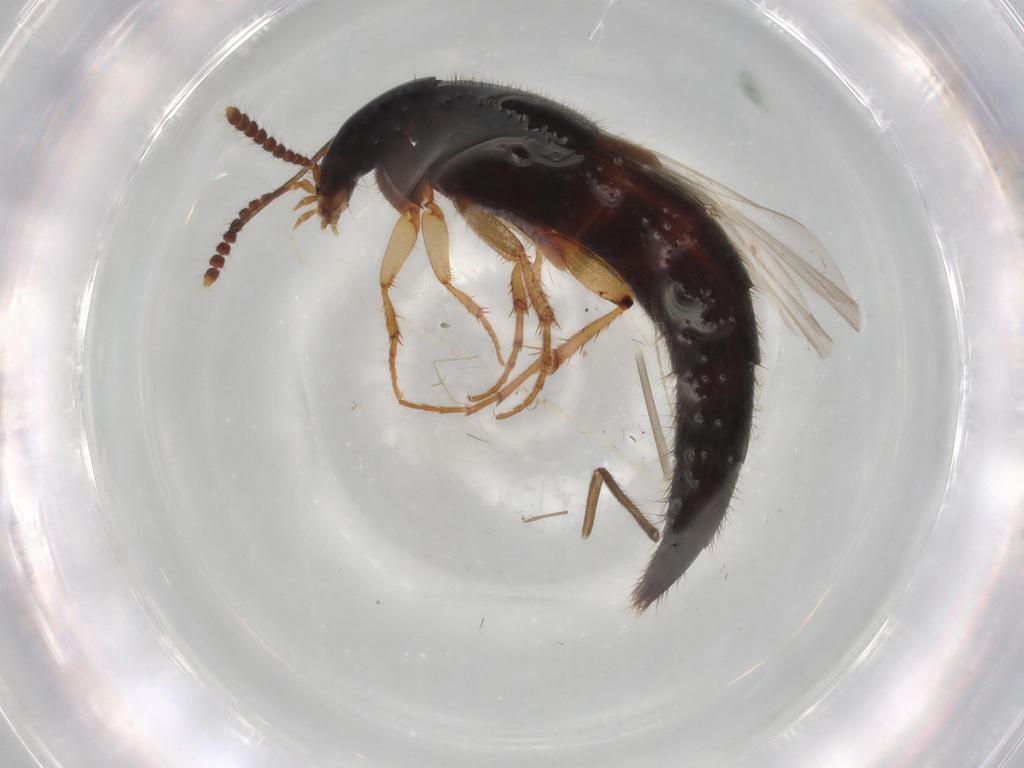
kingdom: Animalia
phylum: Arthropoda
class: Insecta
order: Coleoptera
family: Staphylinidae
